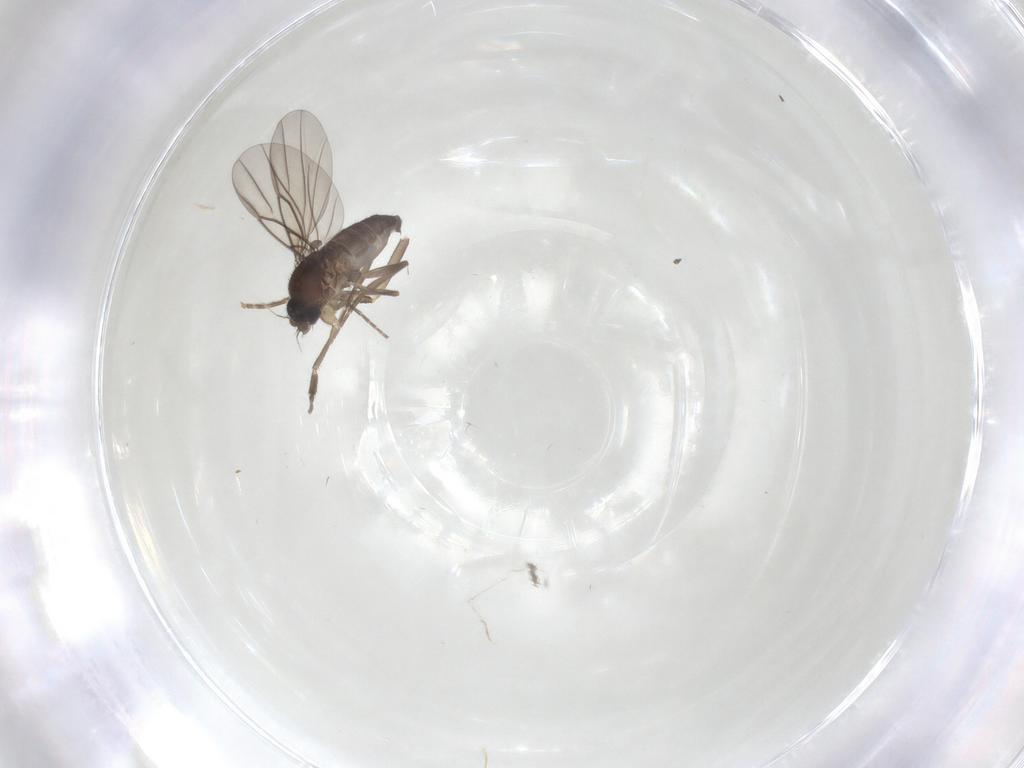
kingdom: Animalia
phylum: Arthropoda
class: Insecta
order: Diptera
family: Phoridae
